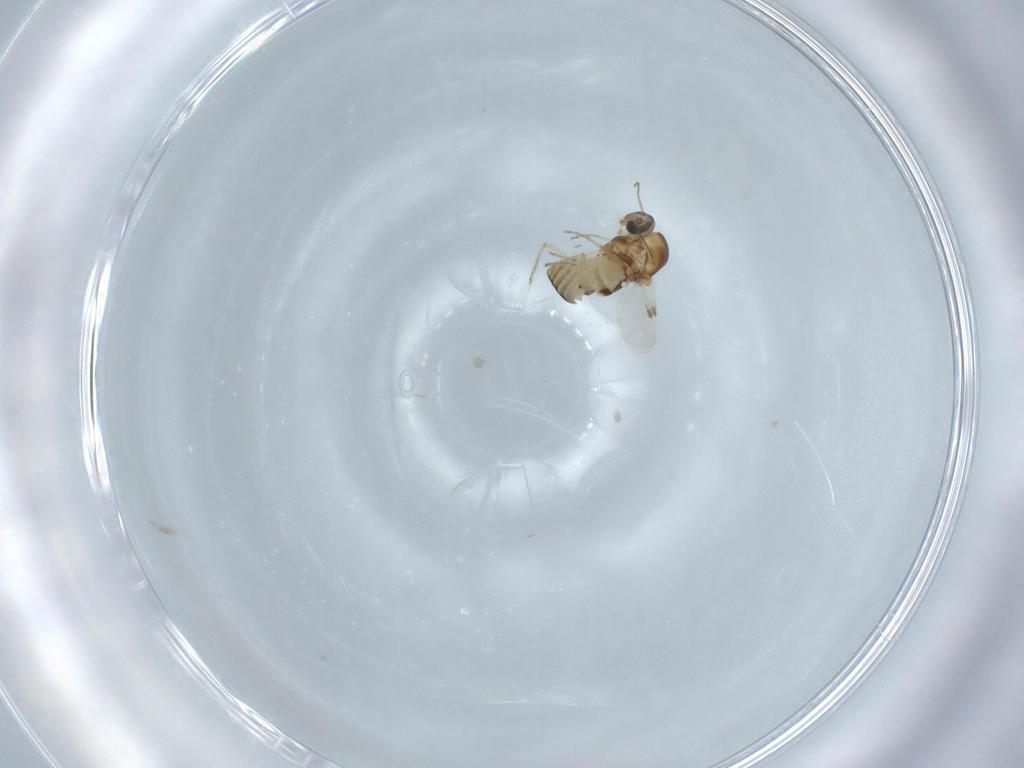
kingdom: Animalia
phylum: Arthropoda
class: Insecta
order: Diptera
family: Ceratopogonidae
